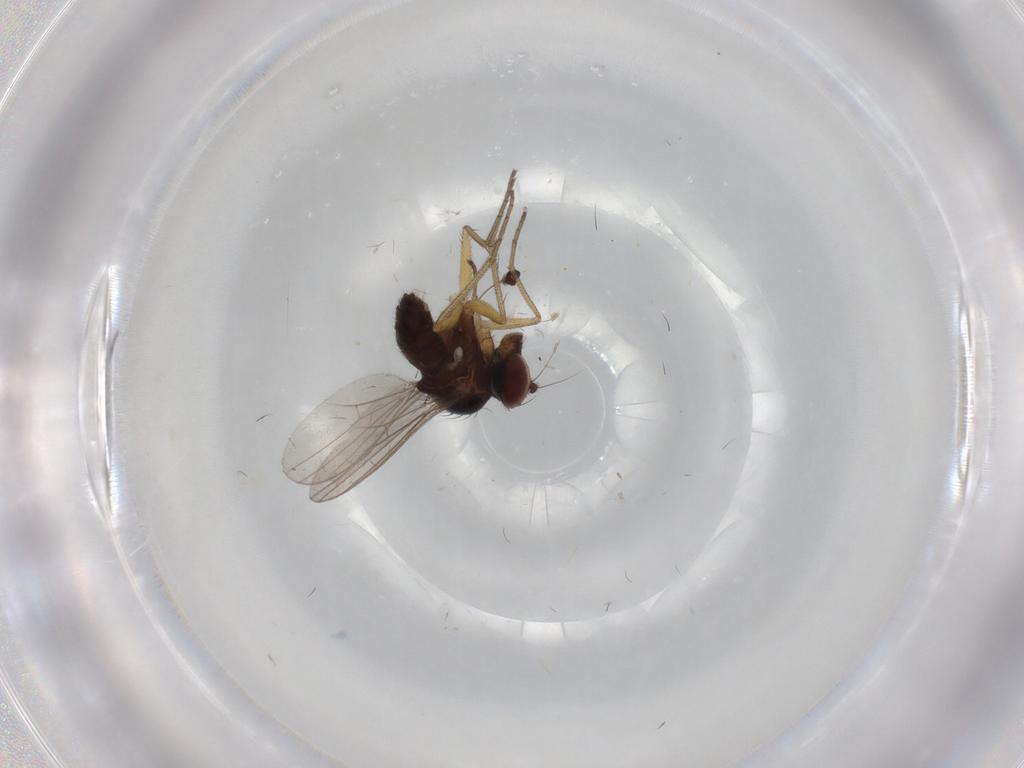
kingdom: Animalia
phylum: Arthropoda
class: Insecta
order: Diptera
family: Dolichopodidae
